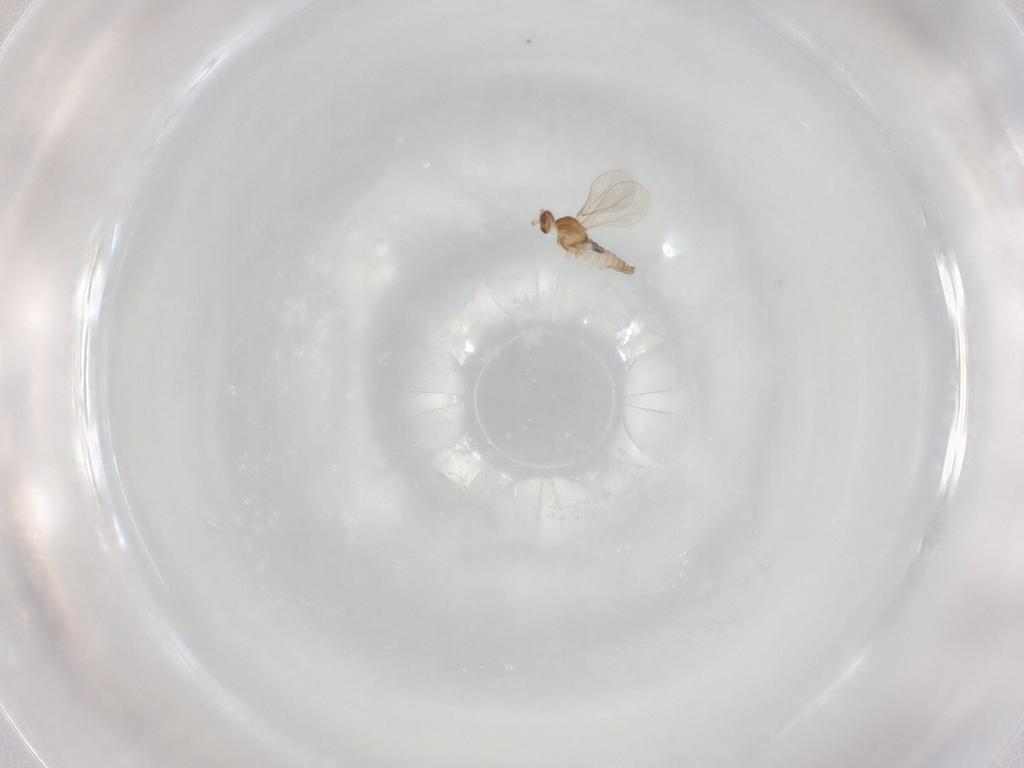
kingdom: Animalia
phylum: Arthropoda
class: Insecta
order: Diptera
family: Cecidomyiidae
